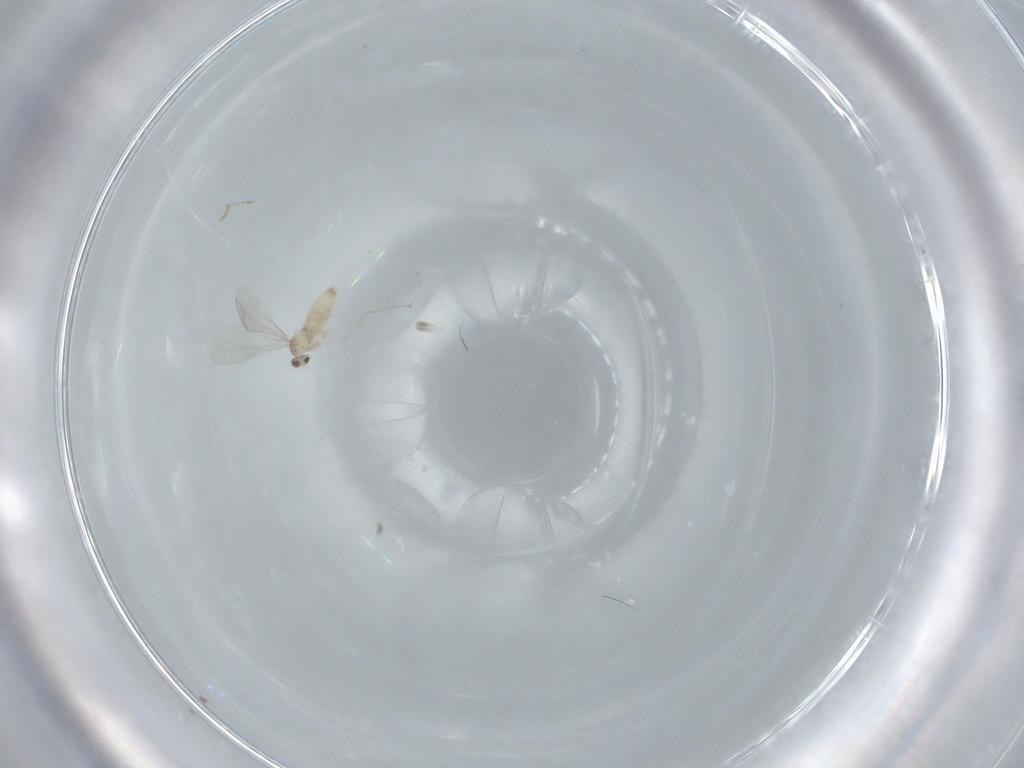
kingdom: Animalia
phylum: Arthropoda
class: Insecta
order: Diptera
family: Cecidomyiidae
